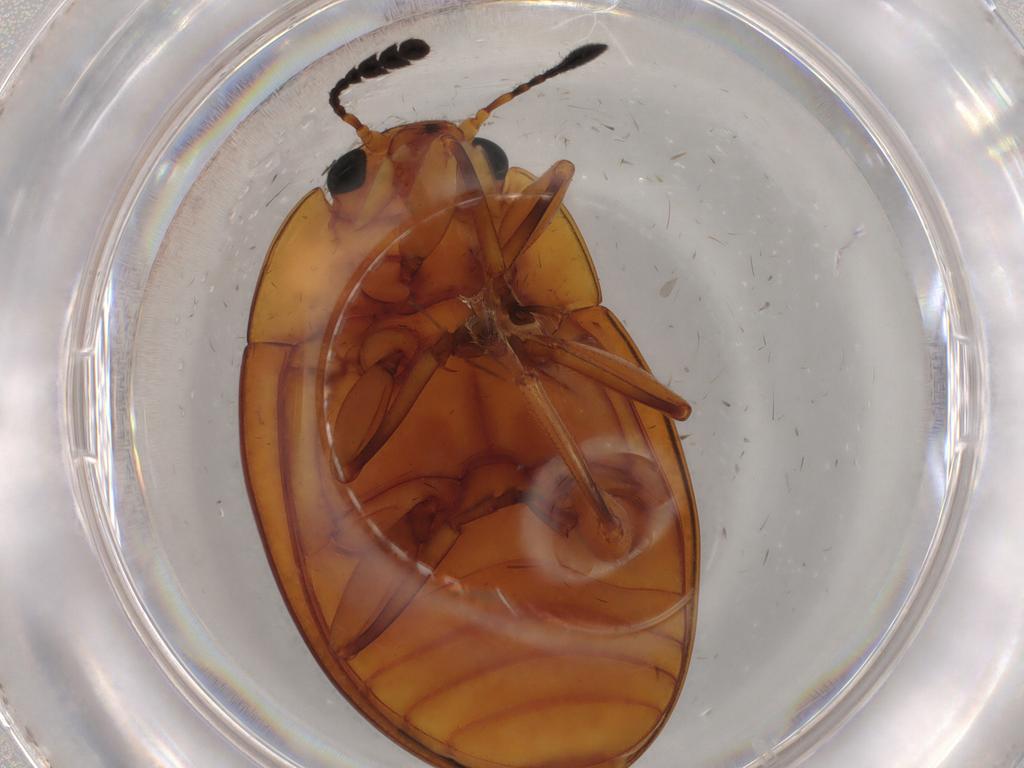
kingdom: Animalia
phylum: Arthropoda
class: Insecta
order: Coleoptera
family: Erotylidae
